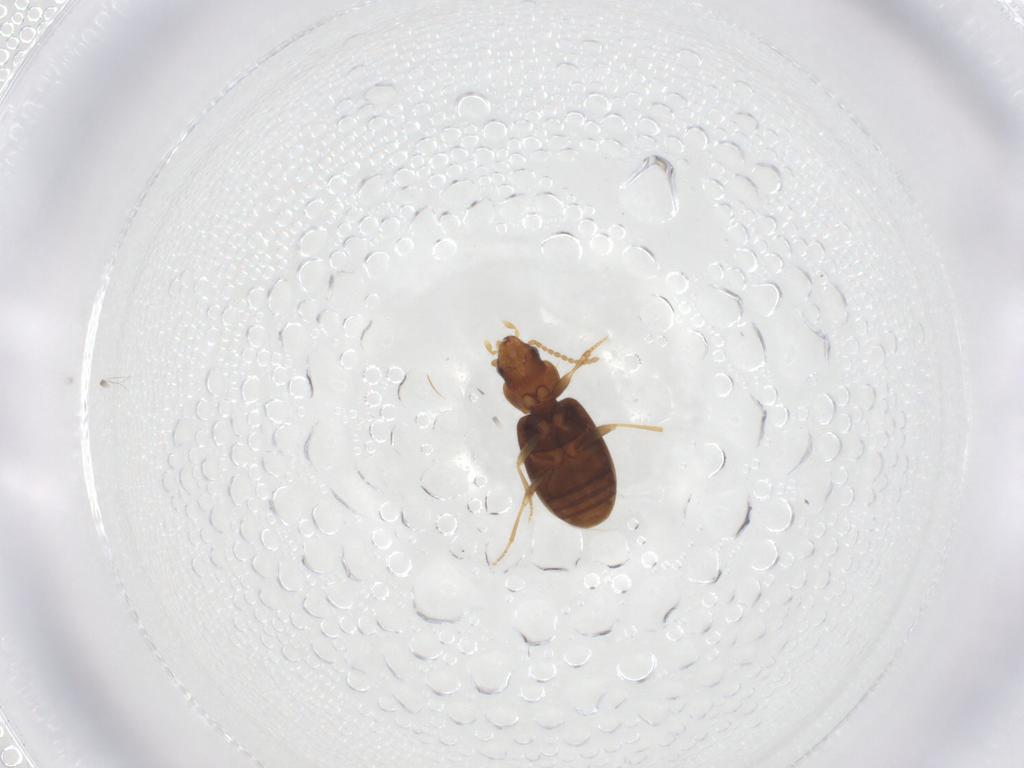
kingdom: Animalia
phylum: Arthropoda
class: Insecta
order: Coleoptera
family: Carabidae
